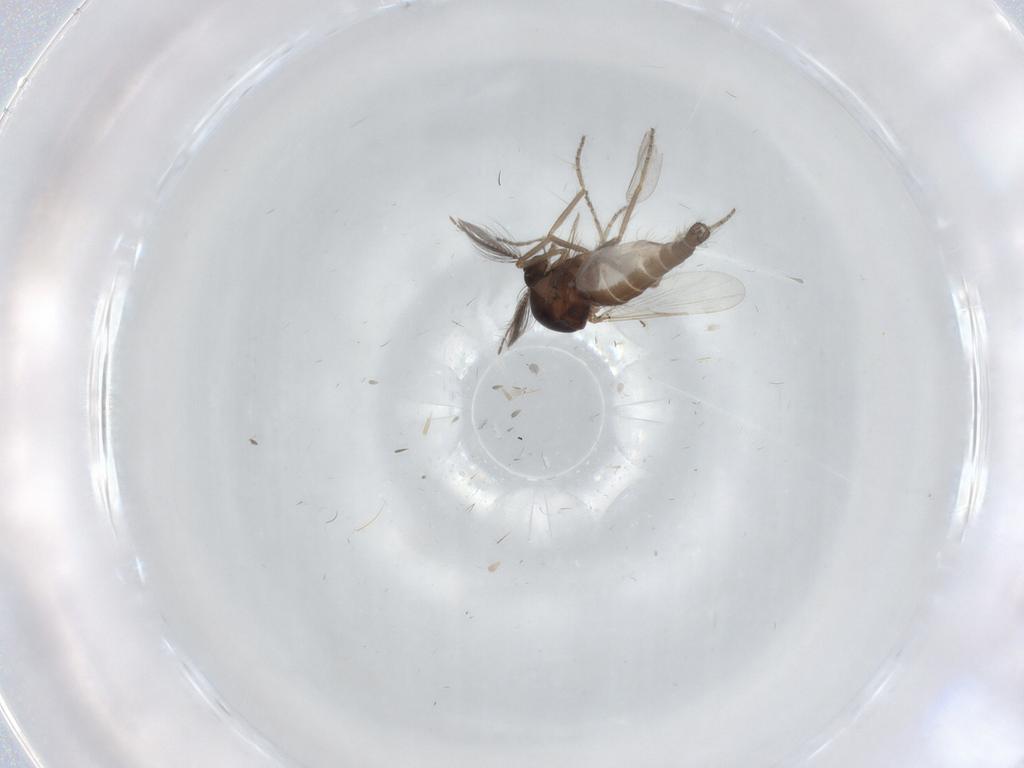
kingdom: Animalia
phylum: Arthropoda
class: Insecta
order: Diptera
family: Ceratopogonidae
